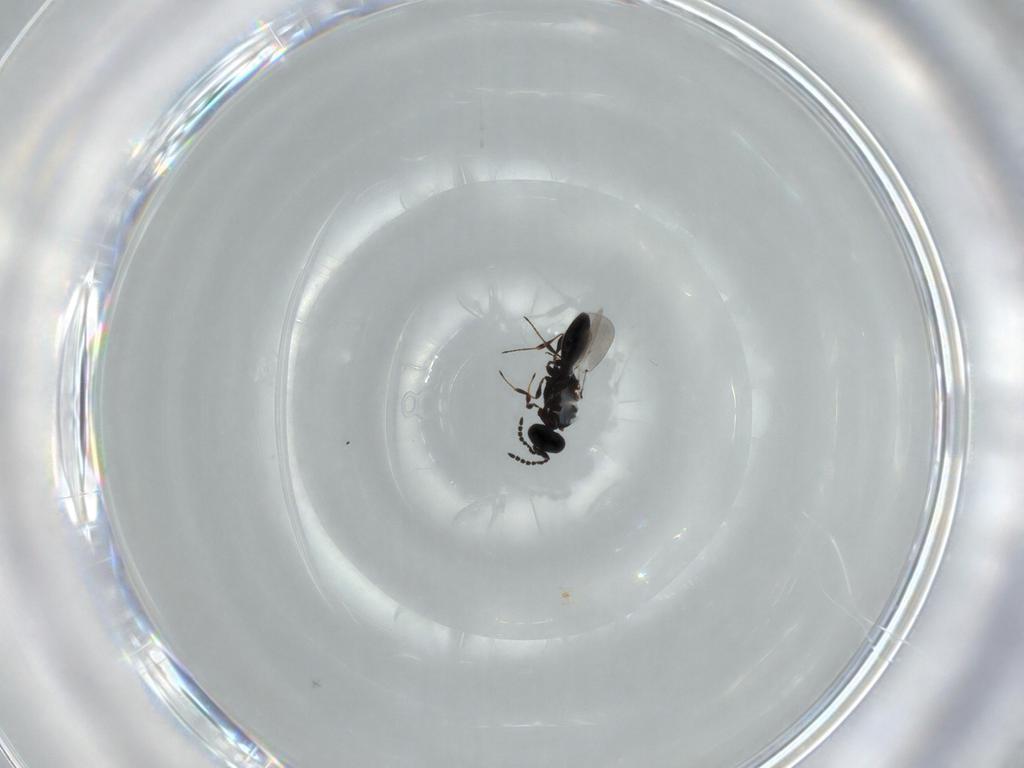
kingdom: Animalia
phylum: Arthropoda
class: Insecta
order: Hymenoptera
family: Platygastridae
